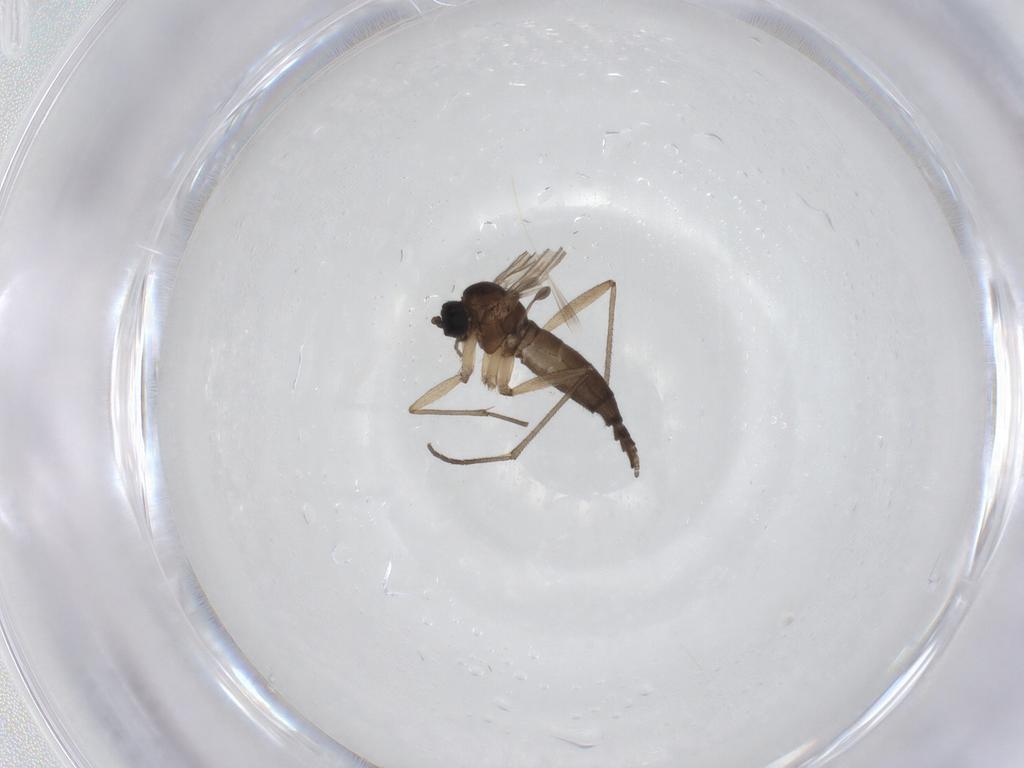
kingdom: Animalia
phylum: Arthropoda
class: Insecta
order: Diptera
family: Sciaridae
